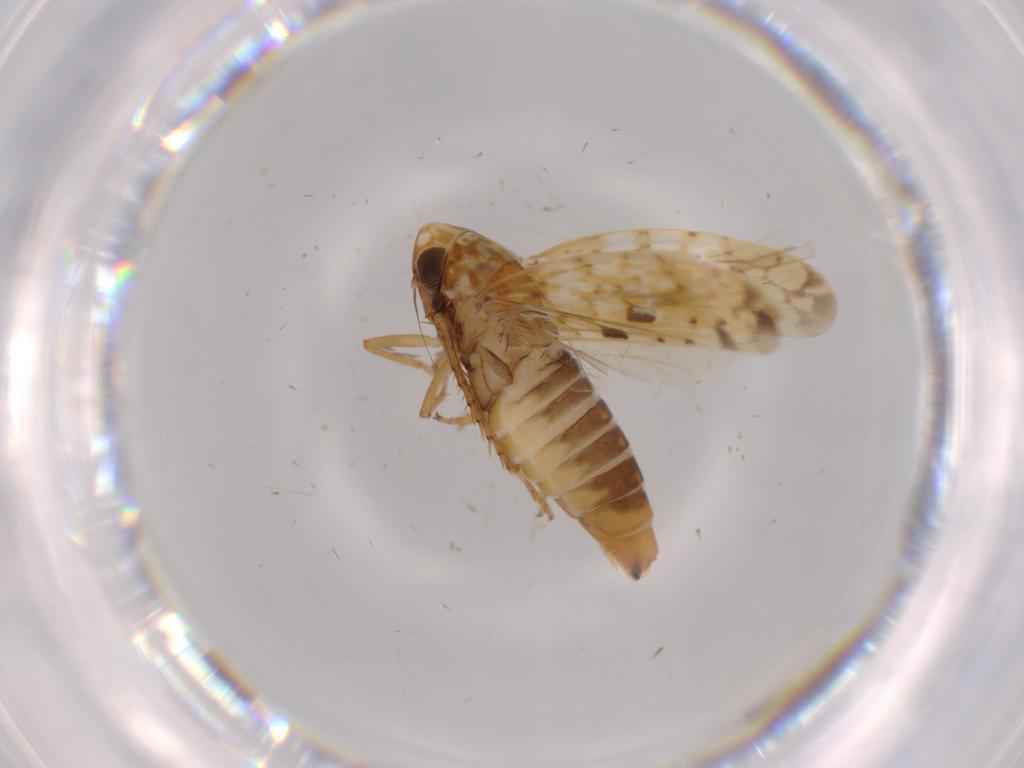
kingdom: Animalia
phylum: Arthropoda
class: Insecta
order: Hemiptera
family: Cicadellidae
